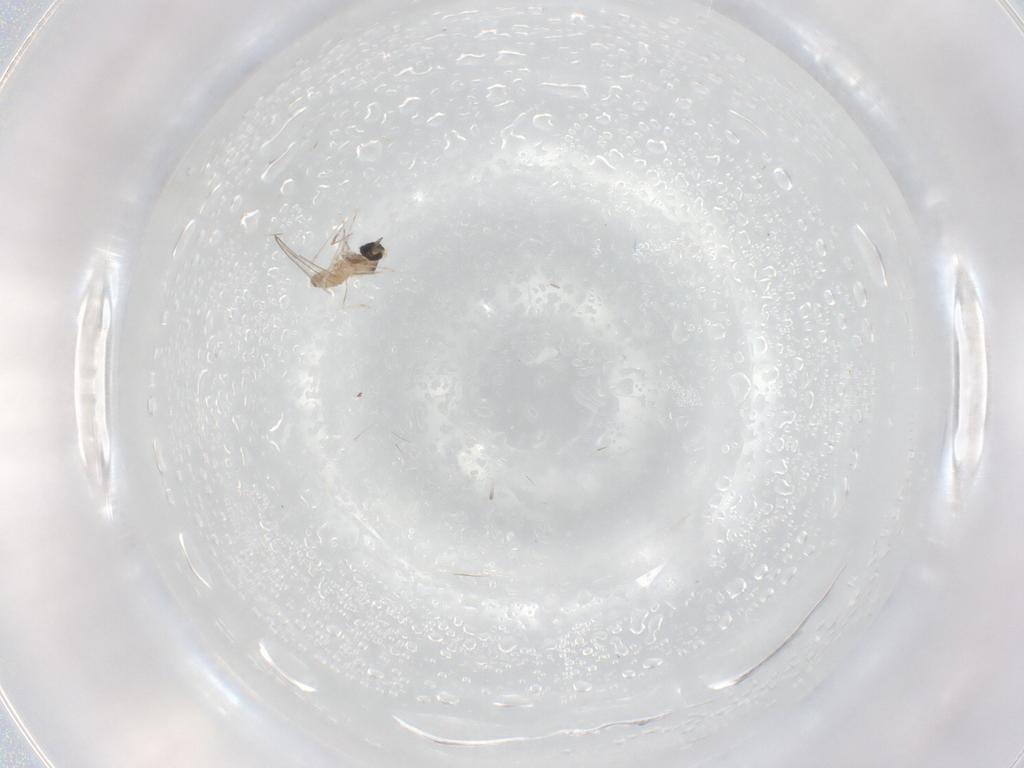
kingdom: Animalia
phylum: Arthropoda
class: Insecta
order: Diptera
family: Cecidomyiidae
